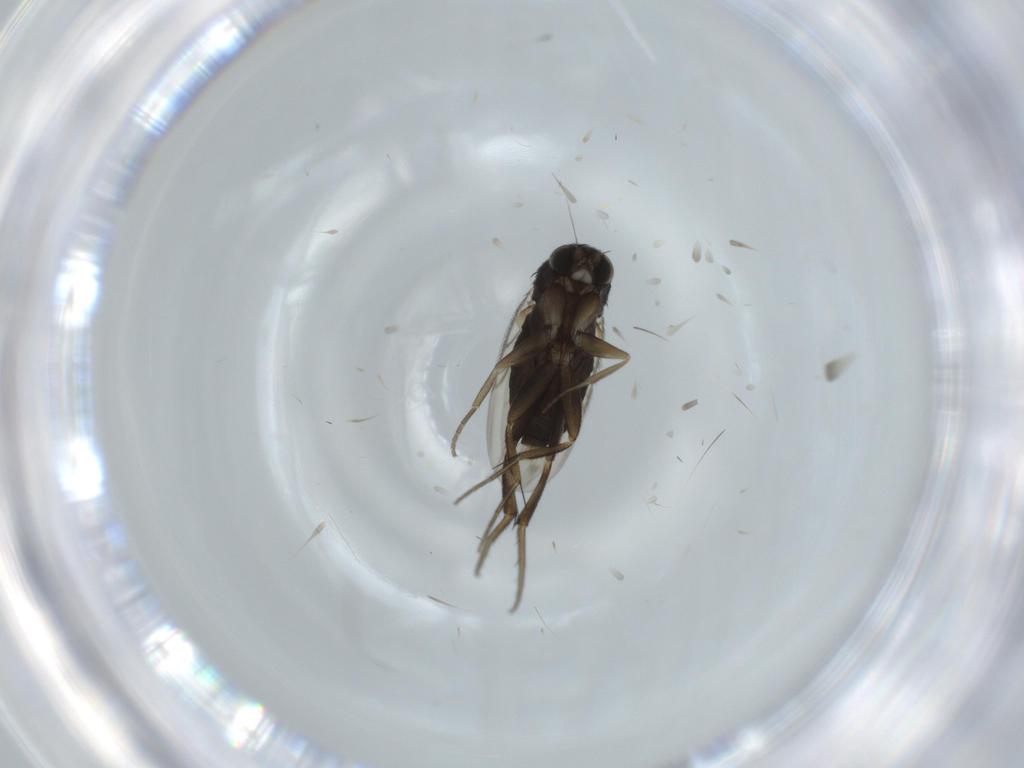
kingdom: Animalia
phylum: Arthropoda
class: Insecta
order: Diptera
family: Phoridae
